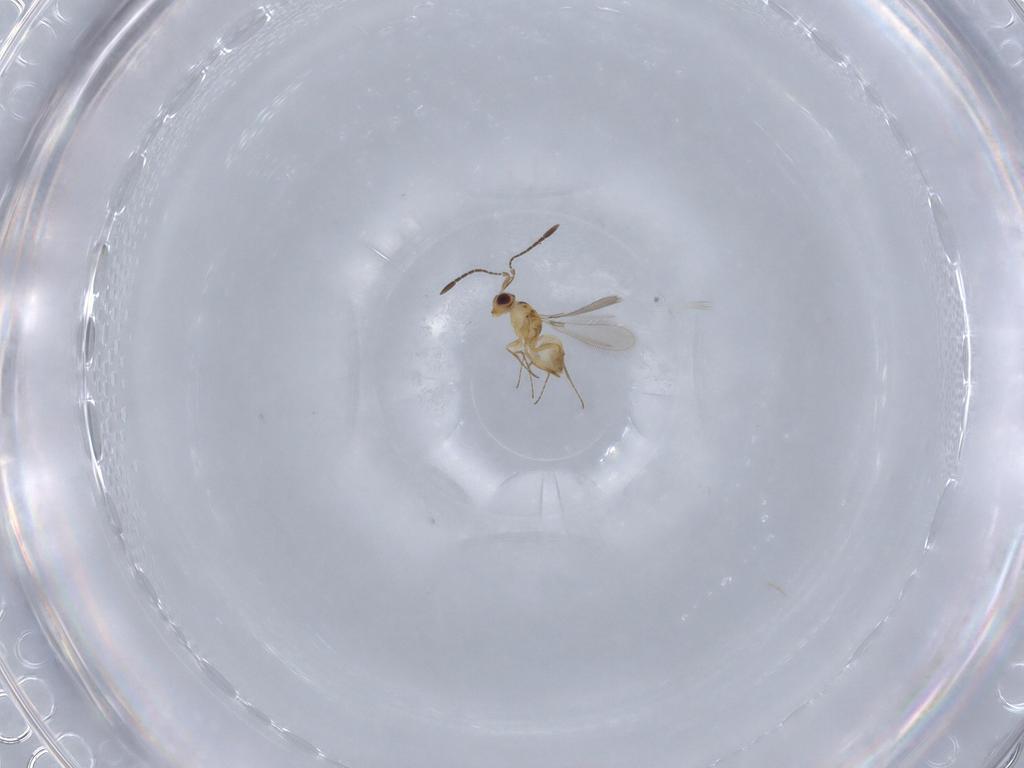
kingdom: Animalia
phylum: Arthropoda
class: Insecta
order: Hymenoptera
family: Mymaridae
